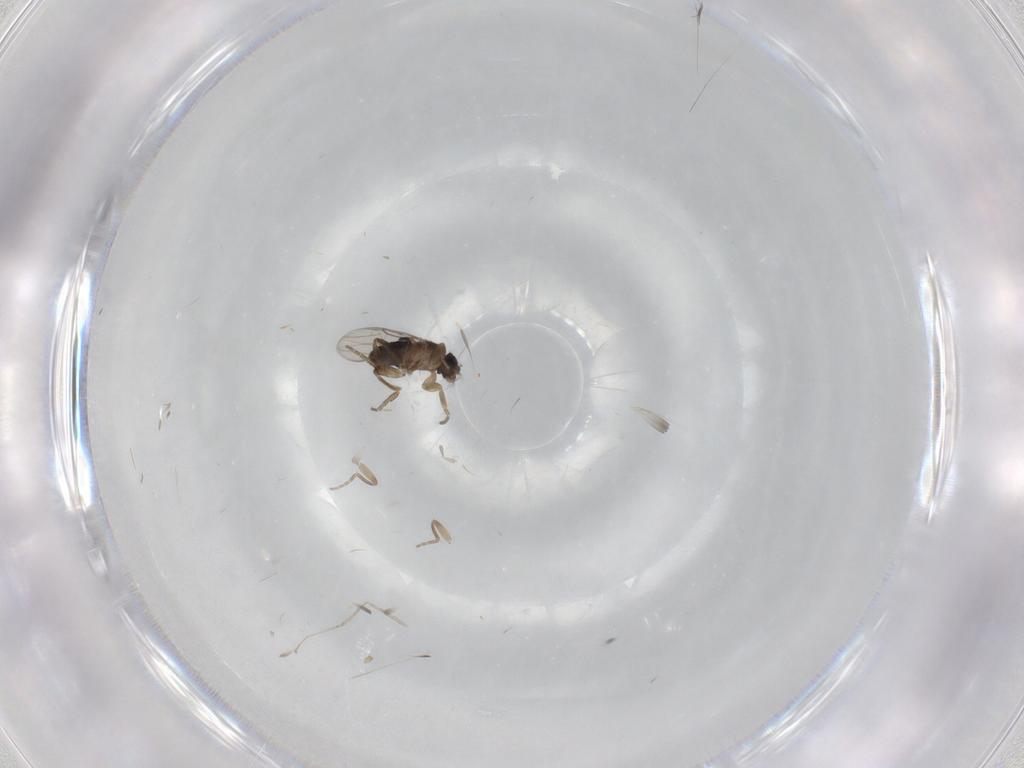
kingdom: Animalia
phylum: Arthropoda
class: Insecta
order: Diptera
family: Phoridae
